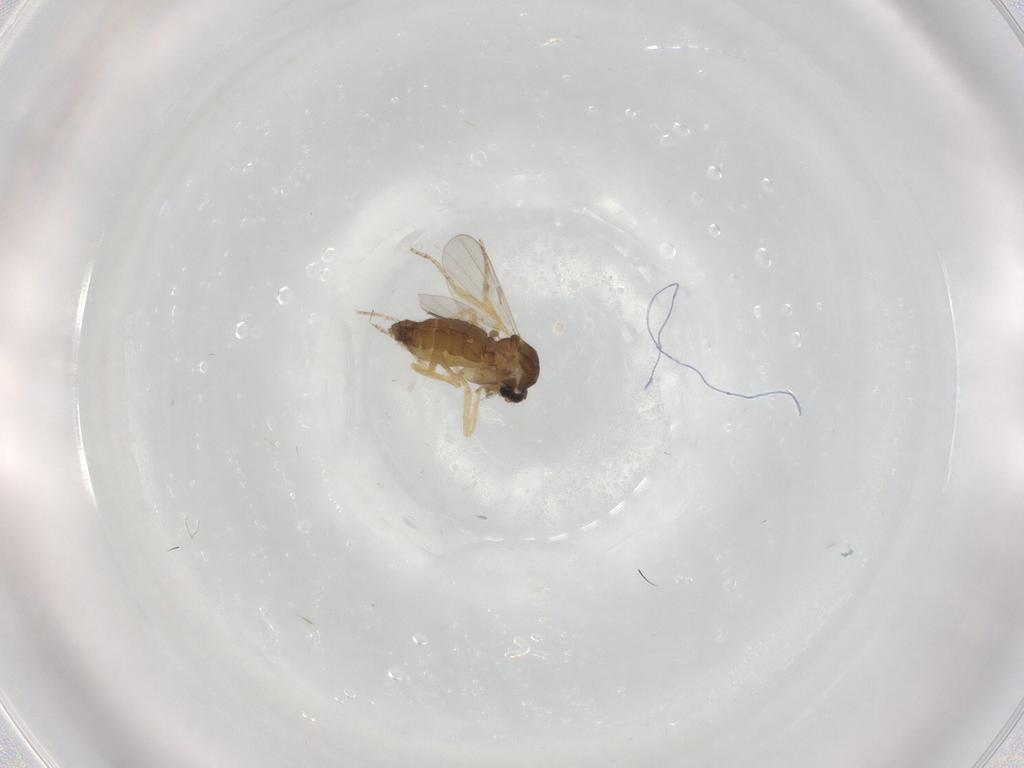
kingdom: Animalia
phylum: Arthropoda
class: Insecta
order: Diptera
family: Ceratopogonidae
